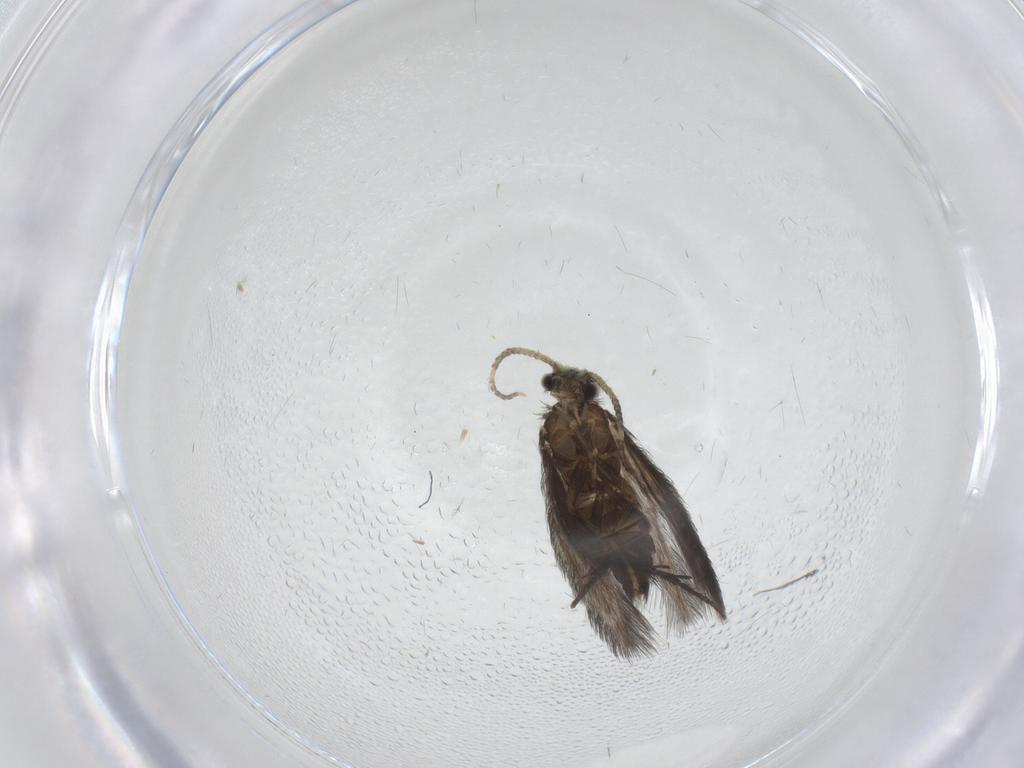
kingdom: Animalia
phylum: Arthropoda
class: Insecta
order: Trichoptera
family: Hydroptilidae
